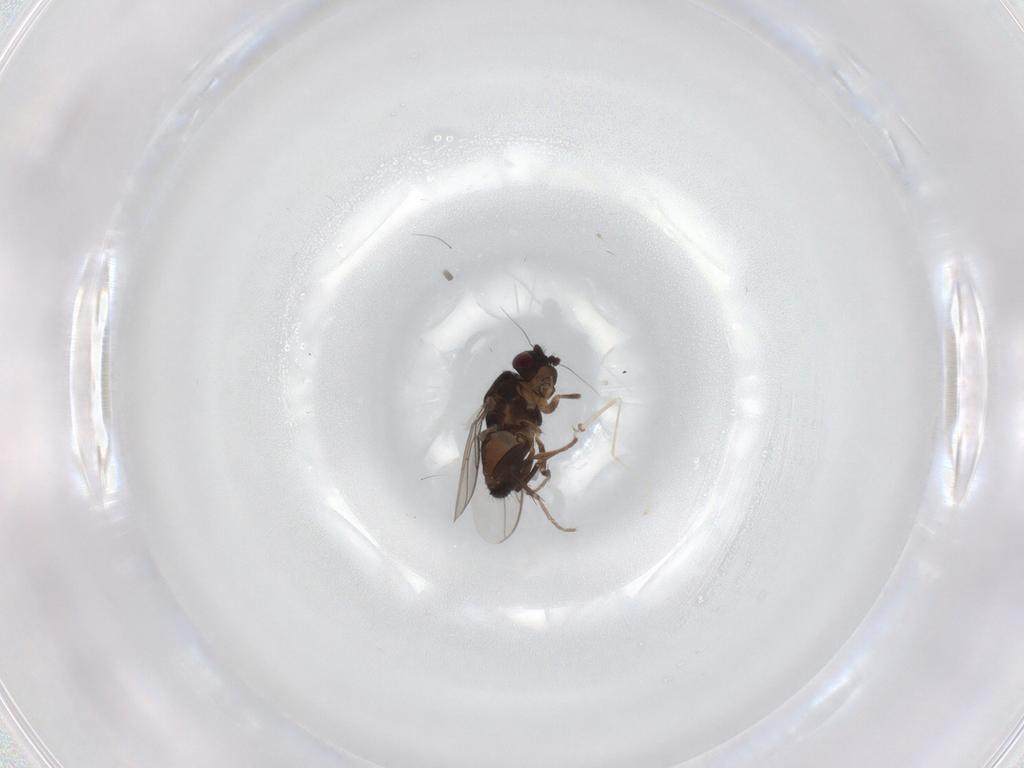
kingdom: Animalia
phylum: Arthropoda
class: Insecta
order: Diptera
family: Sphaeroceridae
